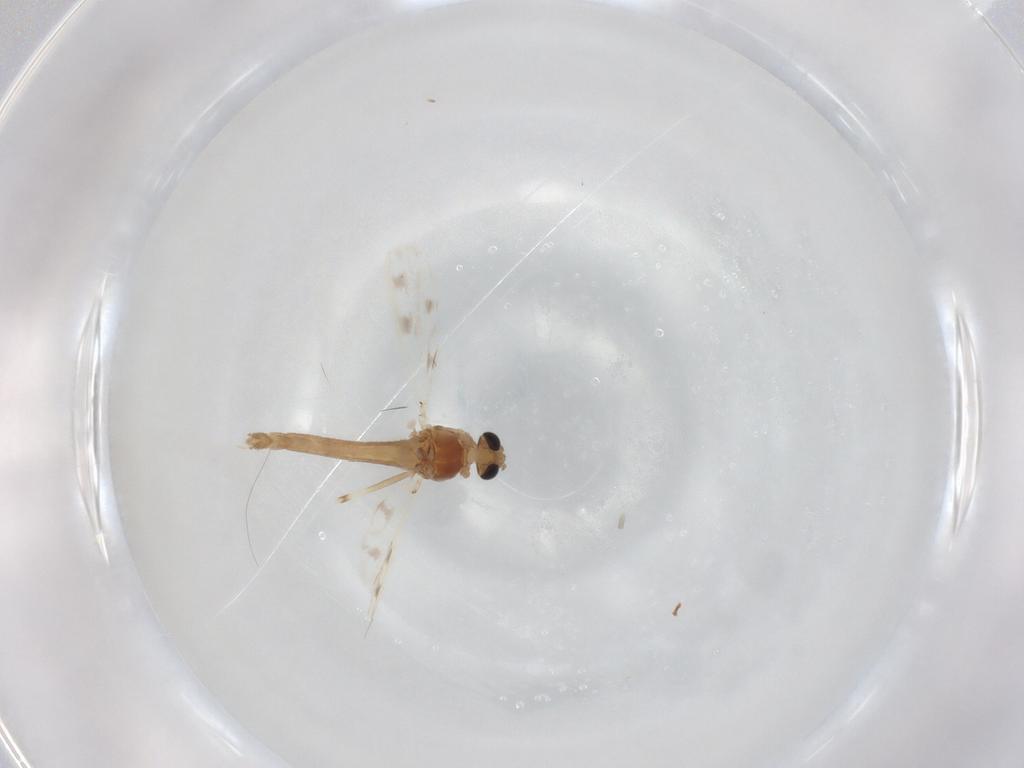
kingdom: Animalia
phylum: Arthropoda
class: Insecta
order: Diptera
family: Chironomidae
